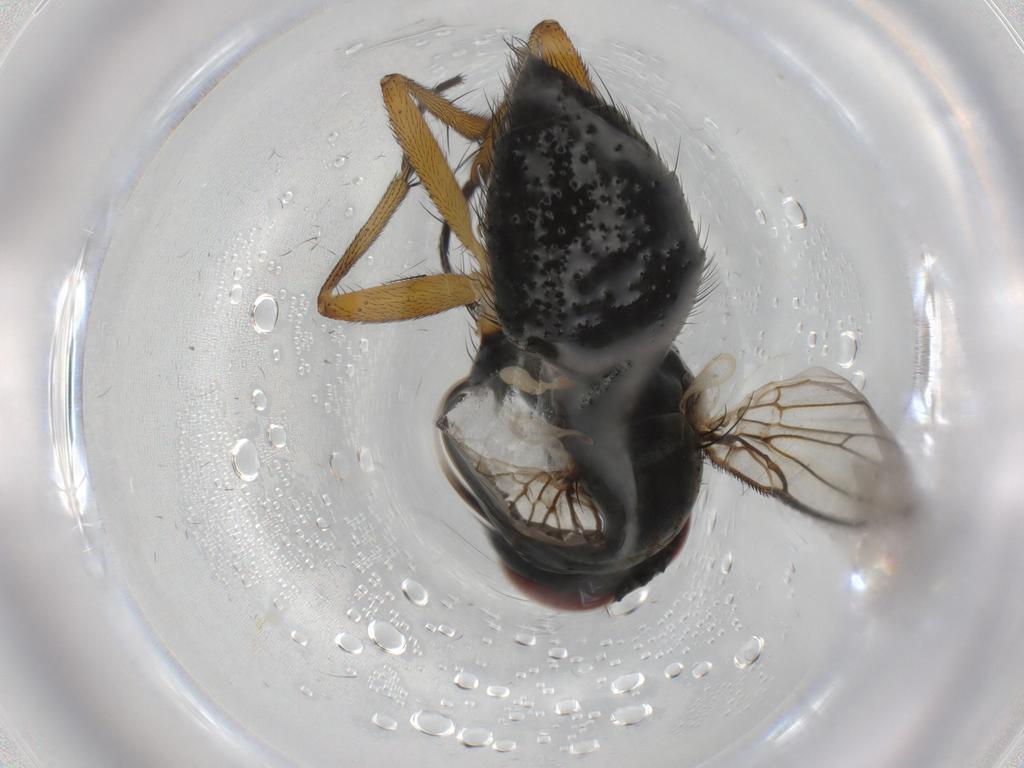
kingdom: Animalia
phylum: Arthropoda
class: Insecta
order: Diptera
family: Muscidae
